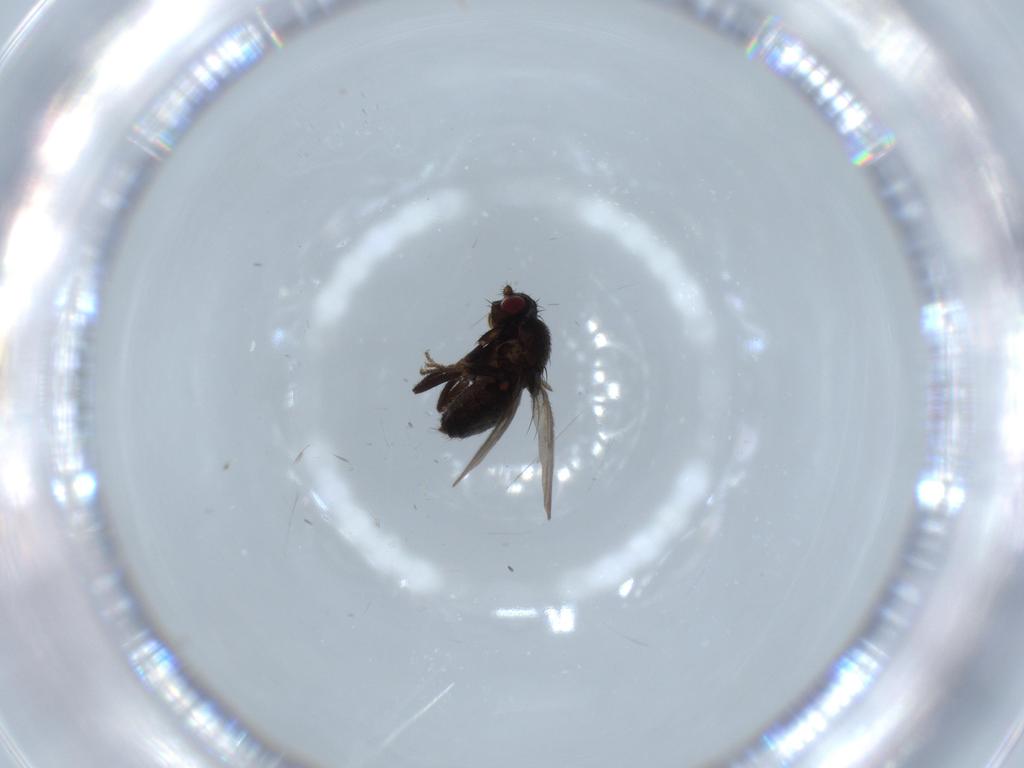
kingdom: Animalia
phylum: Arthropoda
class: Insecta
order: Diptera
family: Sphaeroceridae
